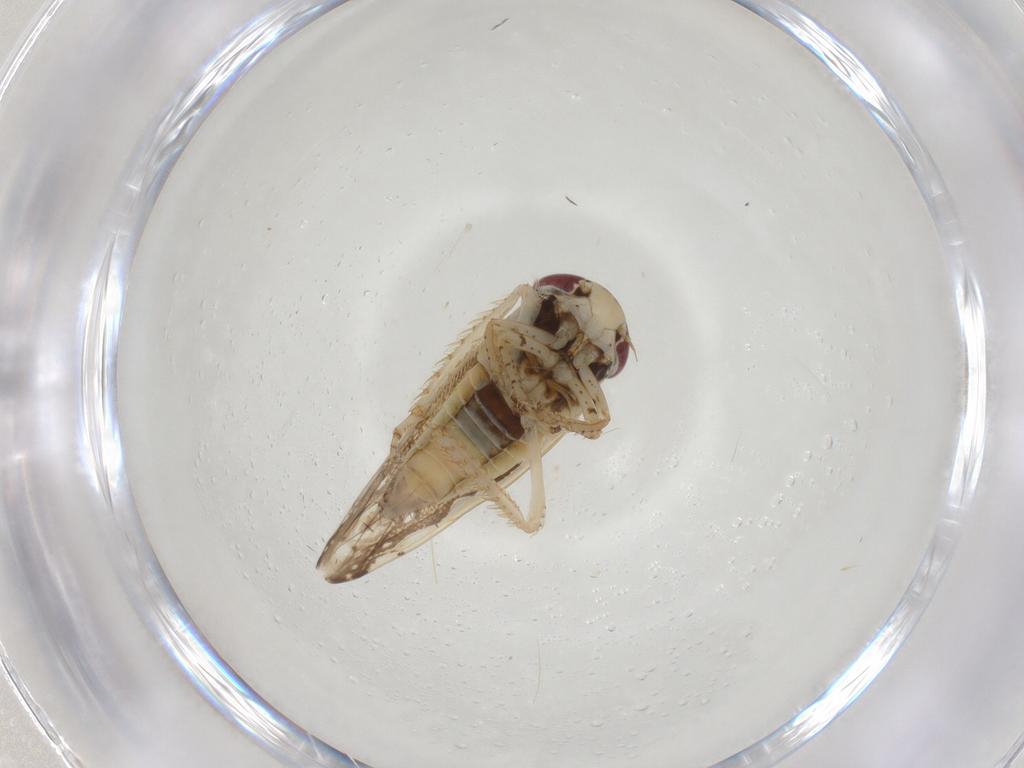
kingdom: Animalia
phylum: Arthropoda
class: Insecta
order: Hemiptera
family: Cicadellidae
